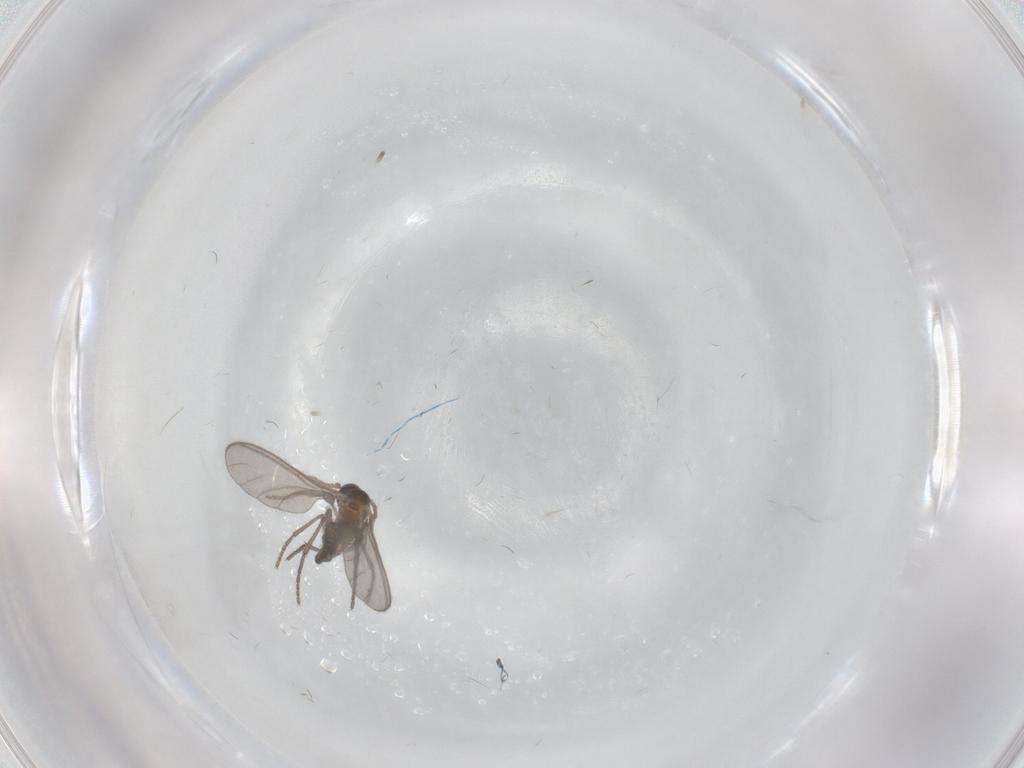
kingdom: Animalia
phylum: Arthropoda
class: Insecta
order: Diptera
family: Sciaridae
